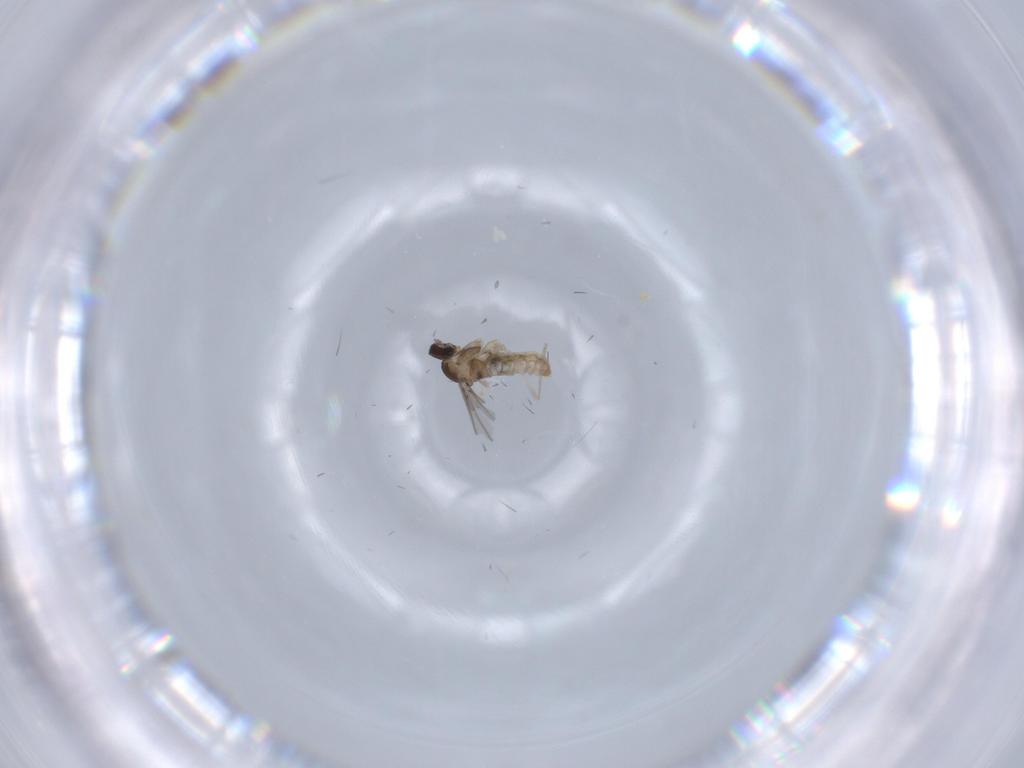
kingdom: Animalia
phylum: Arthropoda
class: Insecta
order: Diptera
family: Cecidomyiidae
